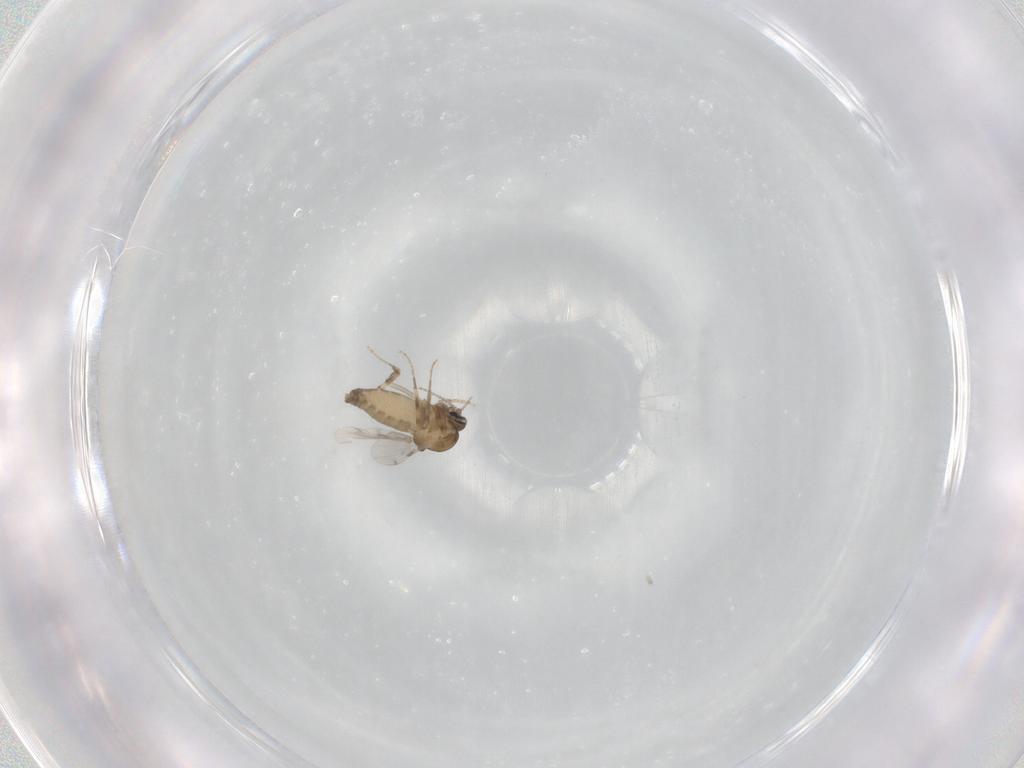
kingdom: Animalia
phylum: Arthropoda
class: Insecta
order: Diptera
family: Ceratopogonidae
